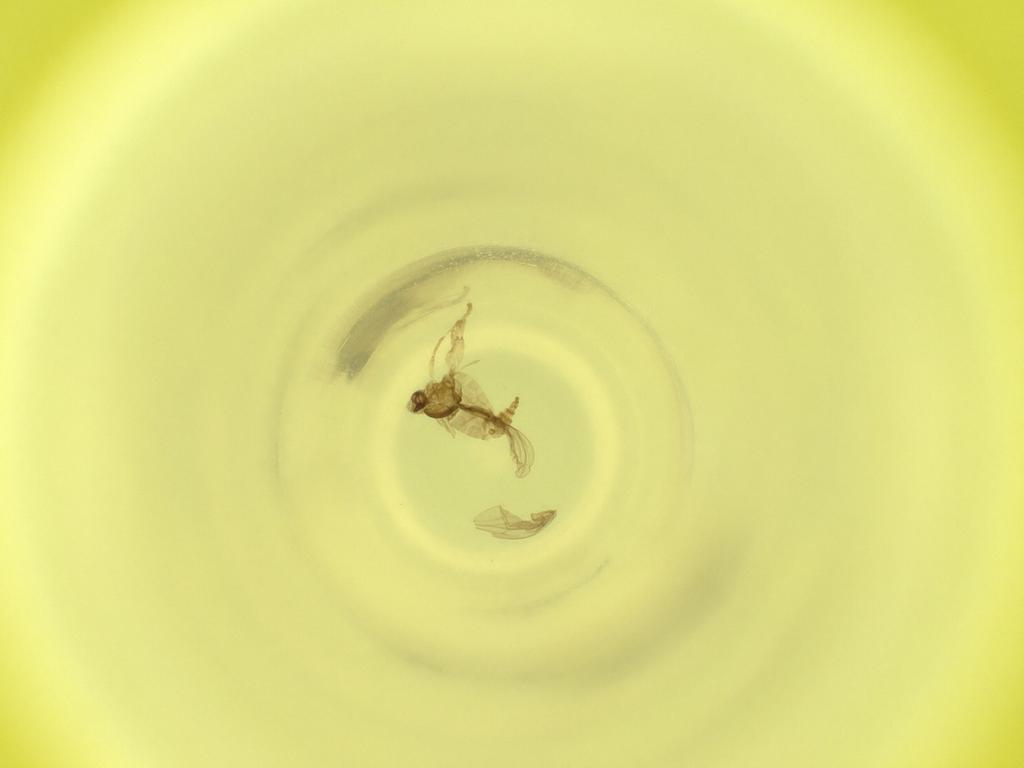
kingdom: Animalia
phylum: Arthropoda
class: Insecta
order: Diptera
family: Cecidomyiidae
